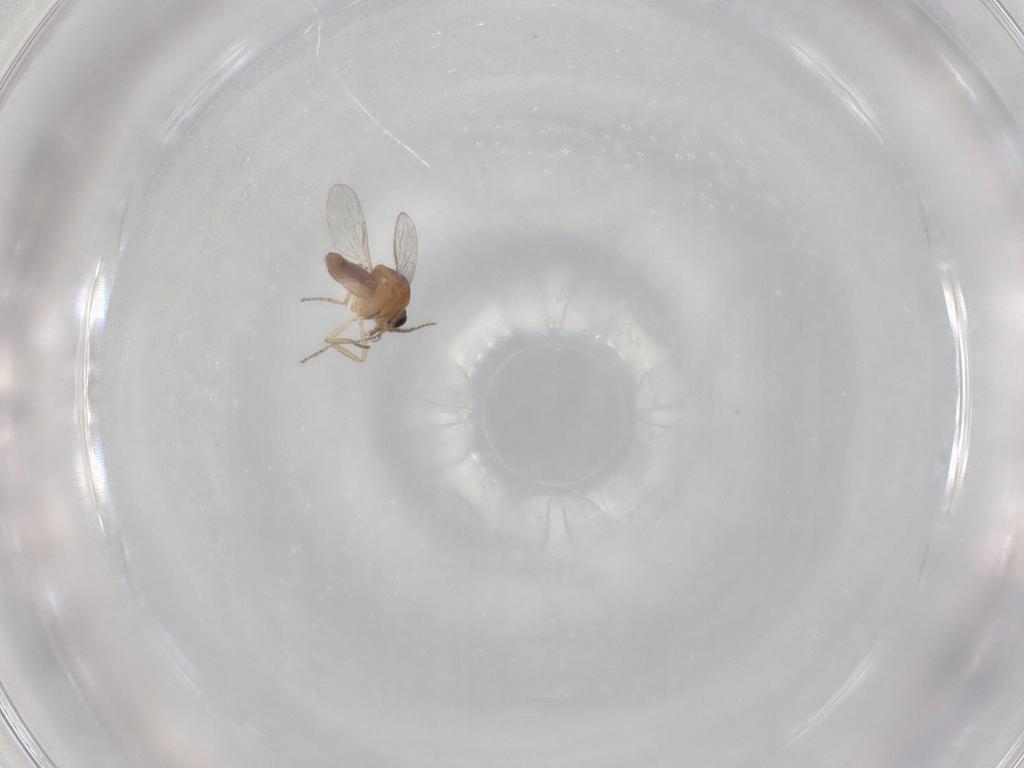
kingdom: Animalia
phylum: Arthropoda
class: Insecta
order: Diptera
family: Ceratopogonidae
